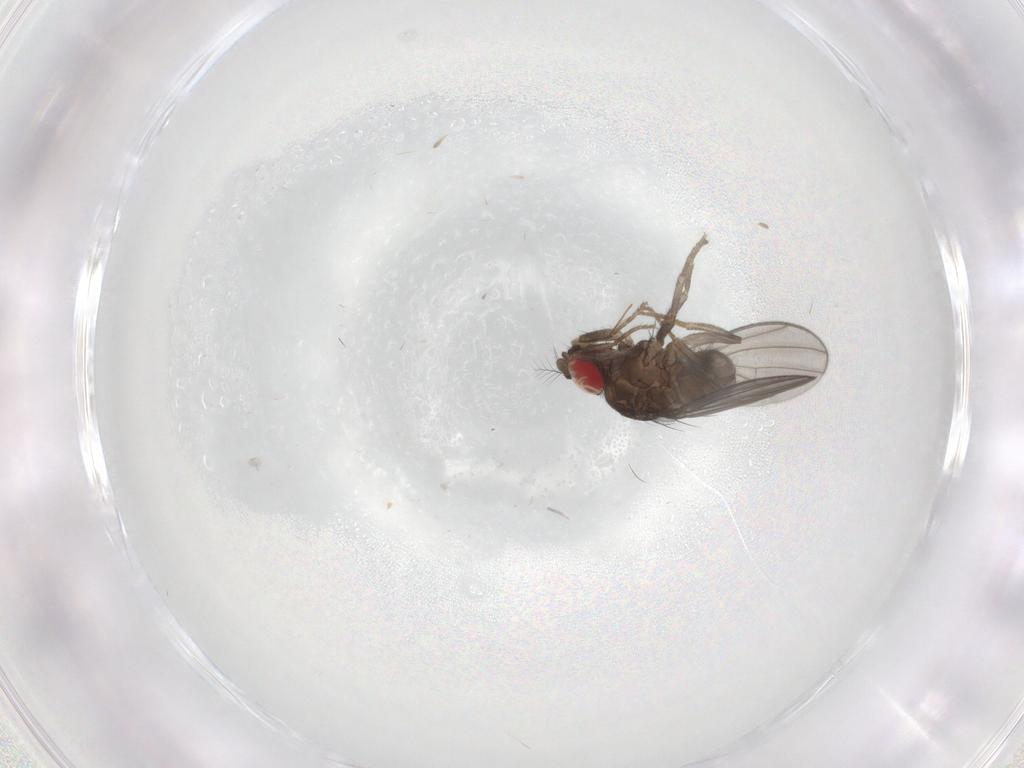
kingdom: Animalia
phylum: Arthropoda
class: Insecta
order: Diptera
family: Drosophilidae
